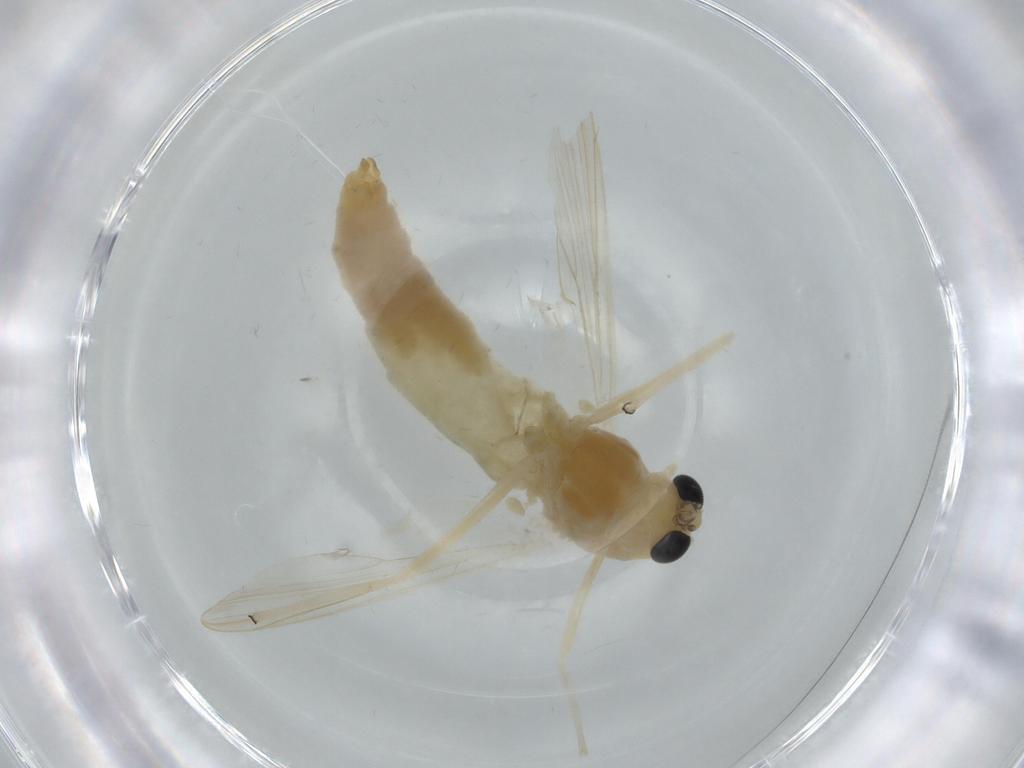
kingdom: Animalia
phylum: Arthropoda
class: Insecta
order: Diptera
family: Chironomidae
